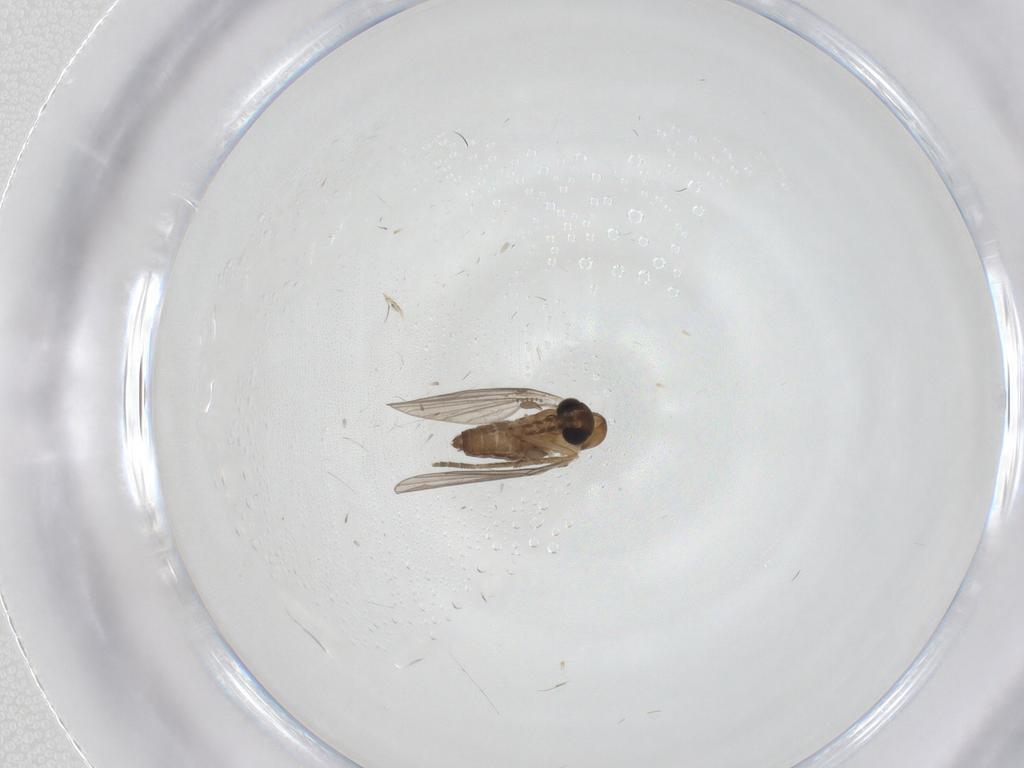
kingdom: Animalia
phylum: Arthropoda
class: Insecta
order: Diptera
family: Cecidomyiidae
